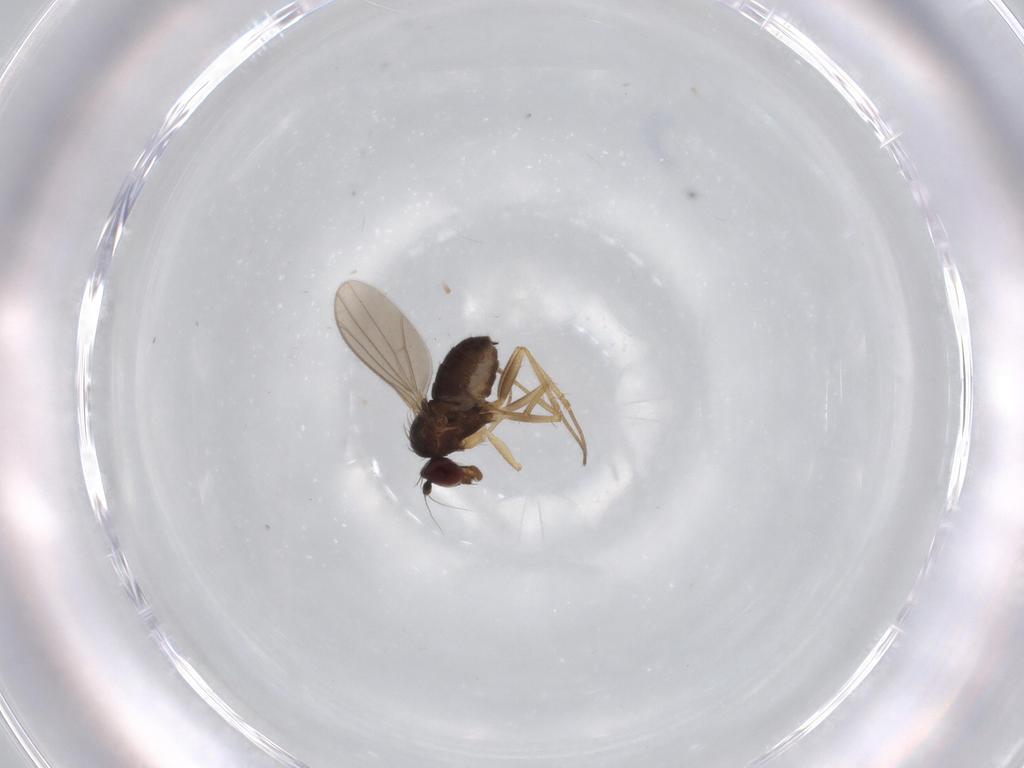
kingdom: Animalia
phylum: Arthropoda
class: Insecta
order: Diptera
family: Dolichopodidae
